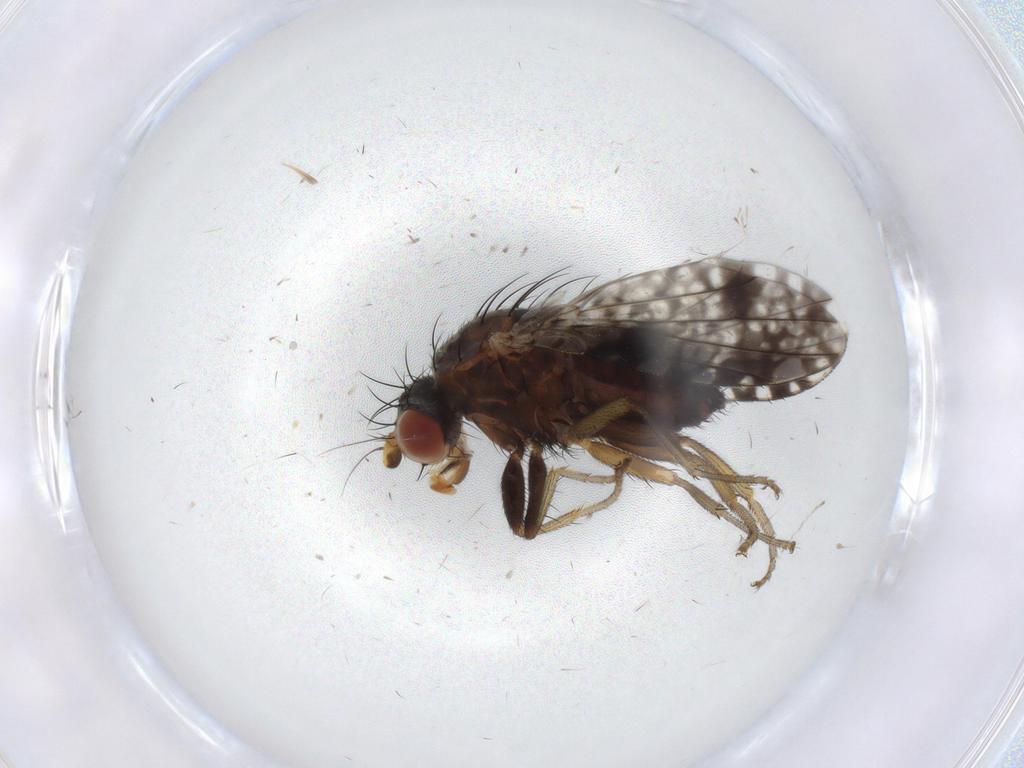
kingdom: Animalia
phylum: Arthropoda
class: Insecta
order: Diptera
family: Tephritidae
